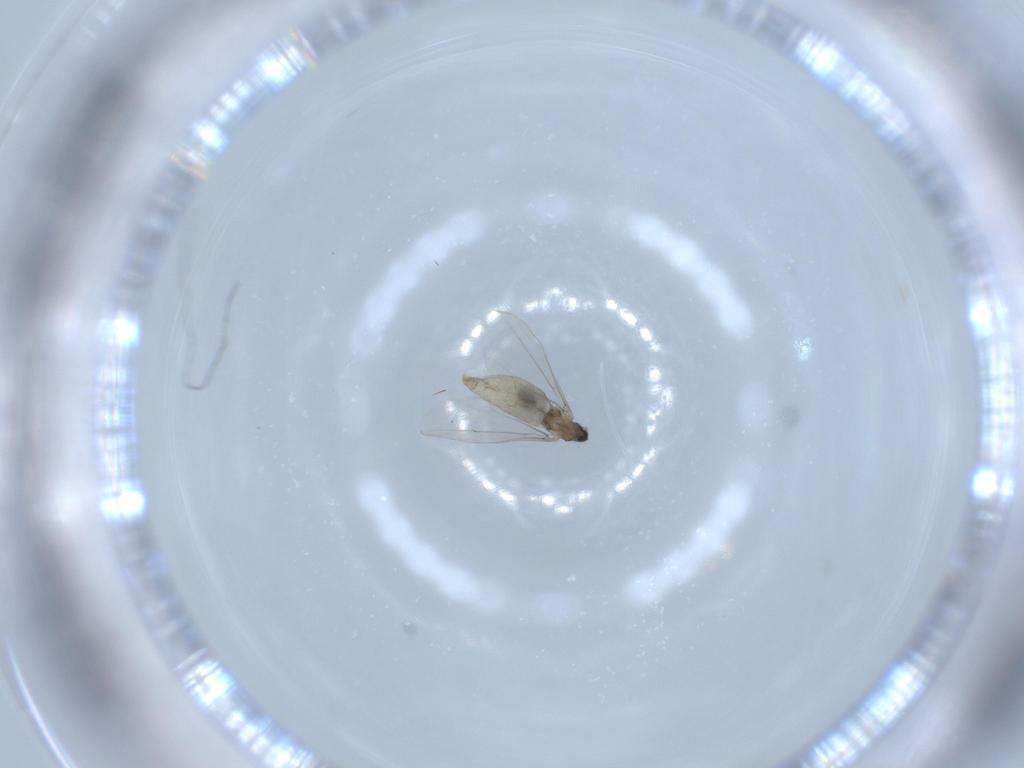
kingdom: Animalia
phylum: Arthropoda
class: Insecta
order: Diptera
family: Cecidomyiidae
